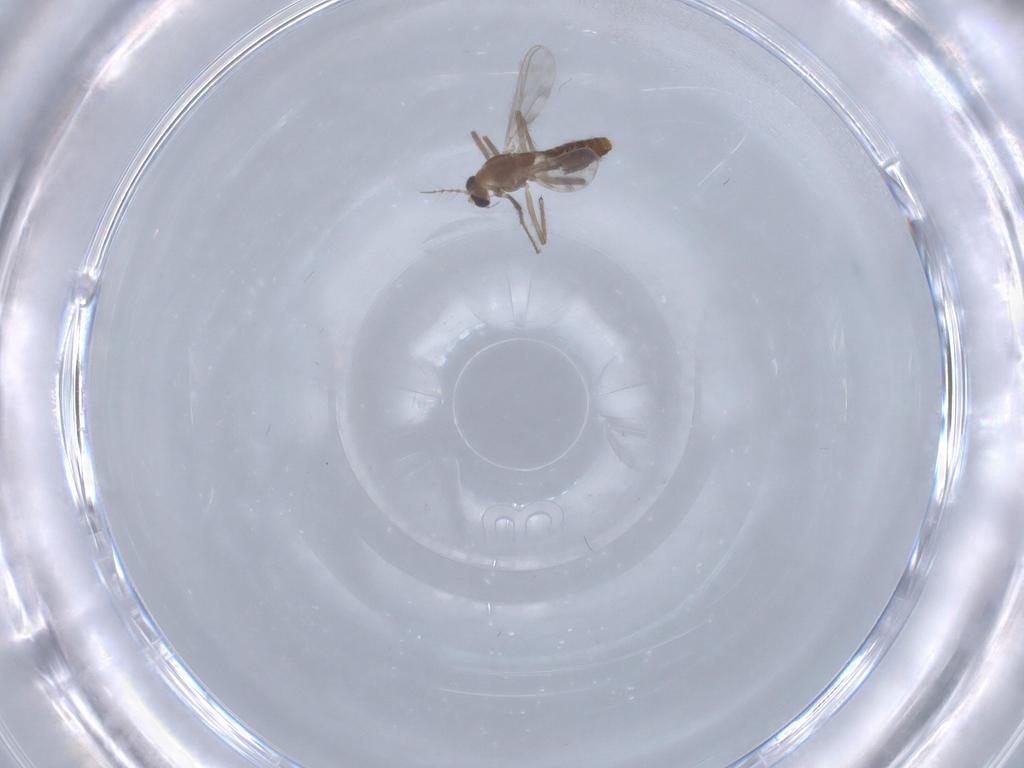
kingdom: Animalia
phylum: Arthropoda
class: Insecta
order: Diptera
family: Chironomidae
